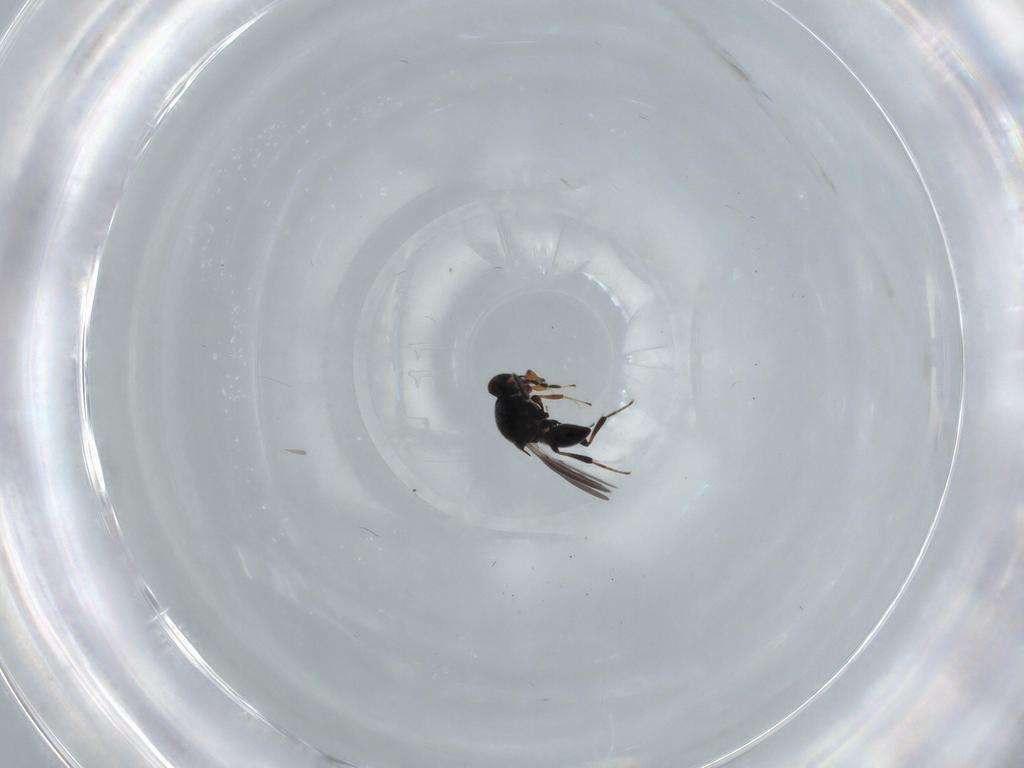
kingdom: Animalia
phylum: Arthropoda
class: Insecta
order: Hymenoptera
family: Platygastridae
